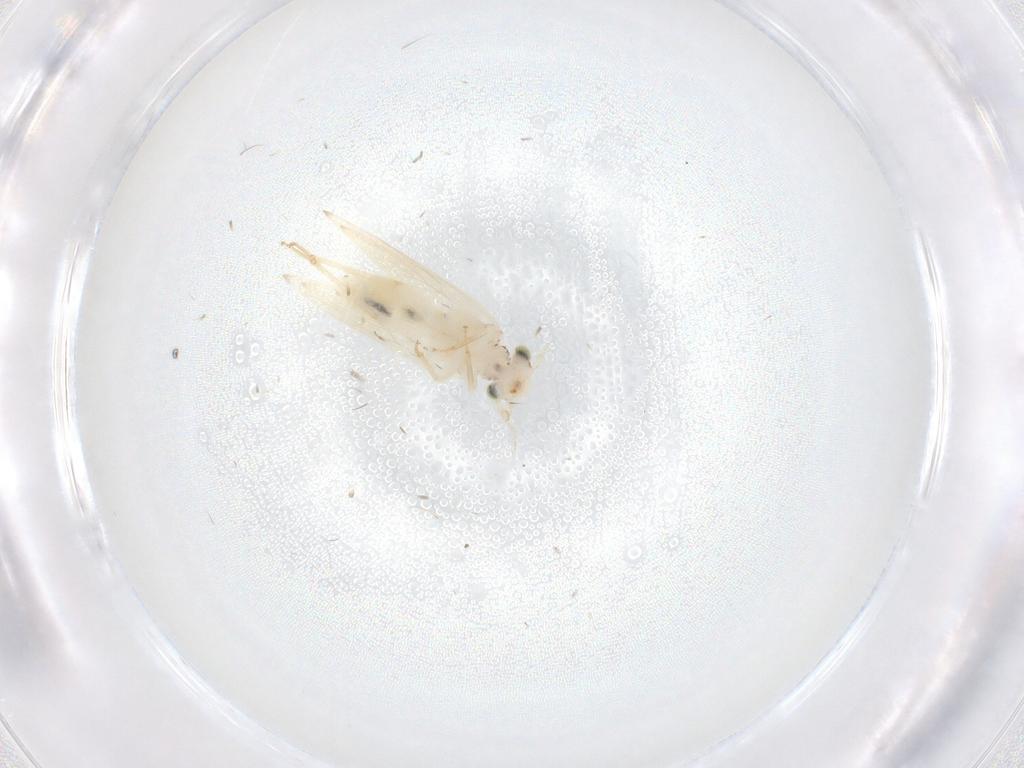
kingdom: Animalia
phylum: Arthropoda
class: Insecta
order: Psocodea
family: Lepidopsocidae
